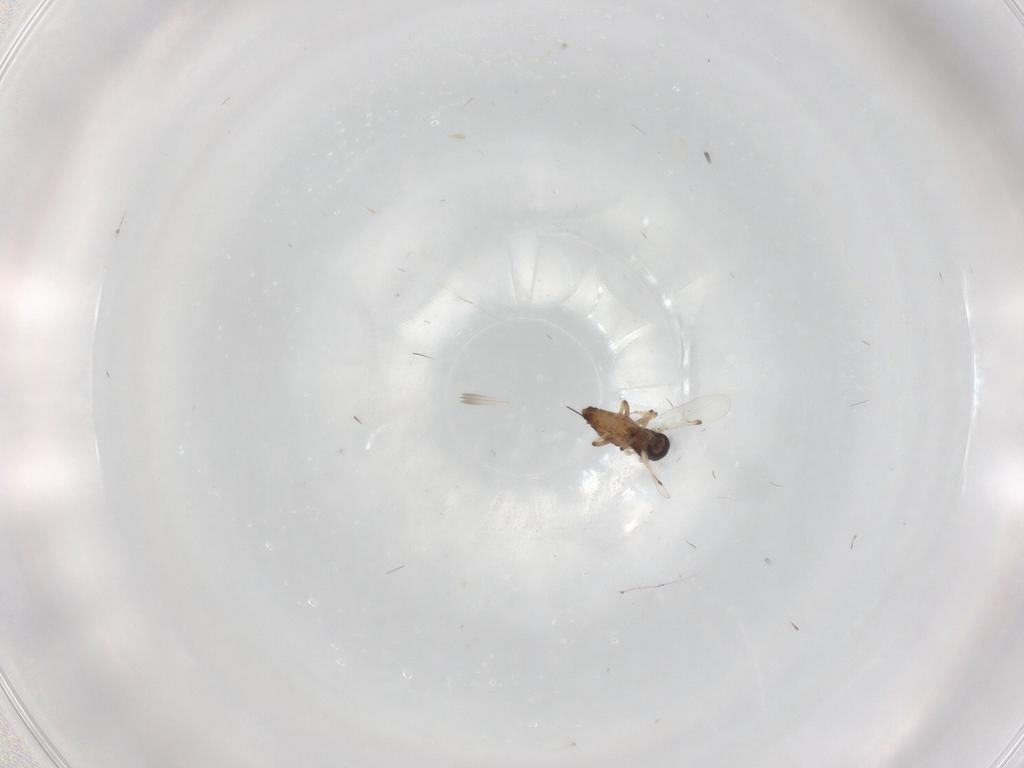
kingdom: Animalia
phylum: Arthropoda
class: Insecta
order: Diptera
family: Ceratopogonidae
